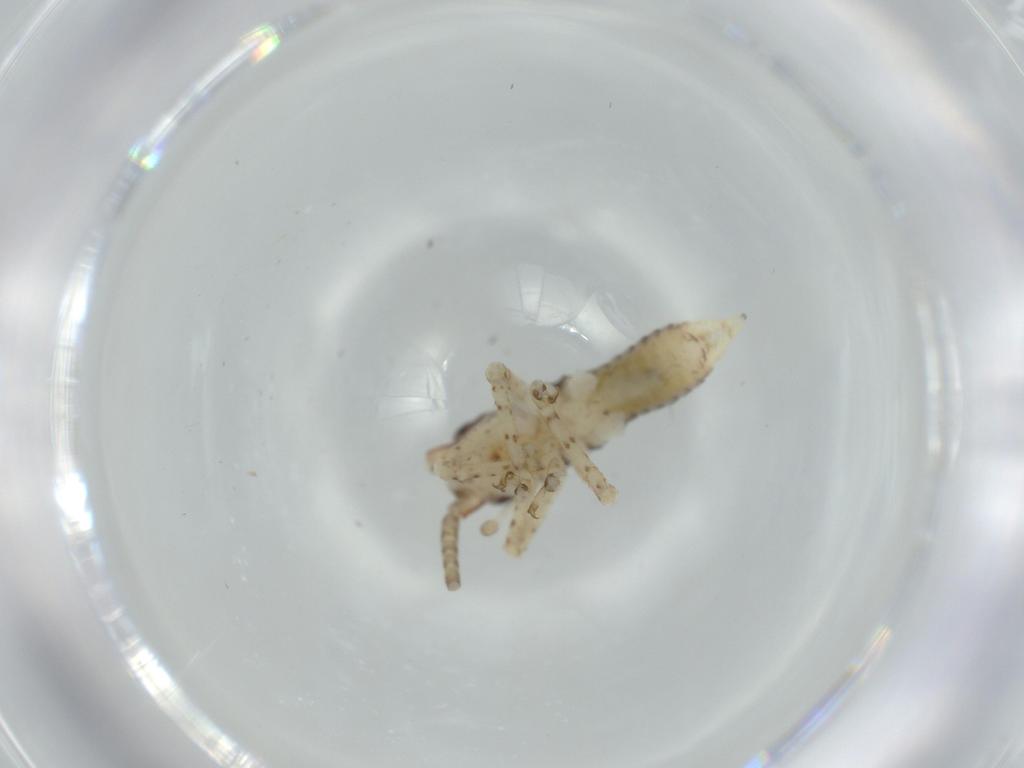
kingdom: Animalia
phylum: Arthropoda
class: Insecta
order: Orthoptera
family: Gryllidae
